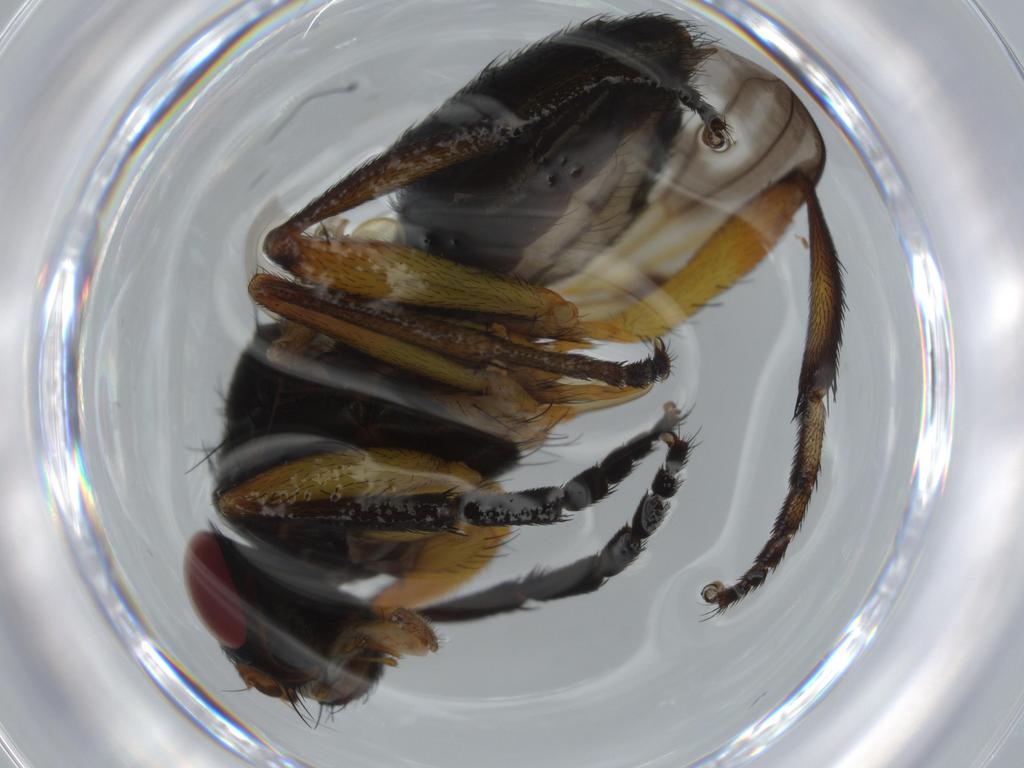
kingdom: Animalia
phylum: Arthropoda
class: Insecta
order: Diptera
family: Calliphoridae
